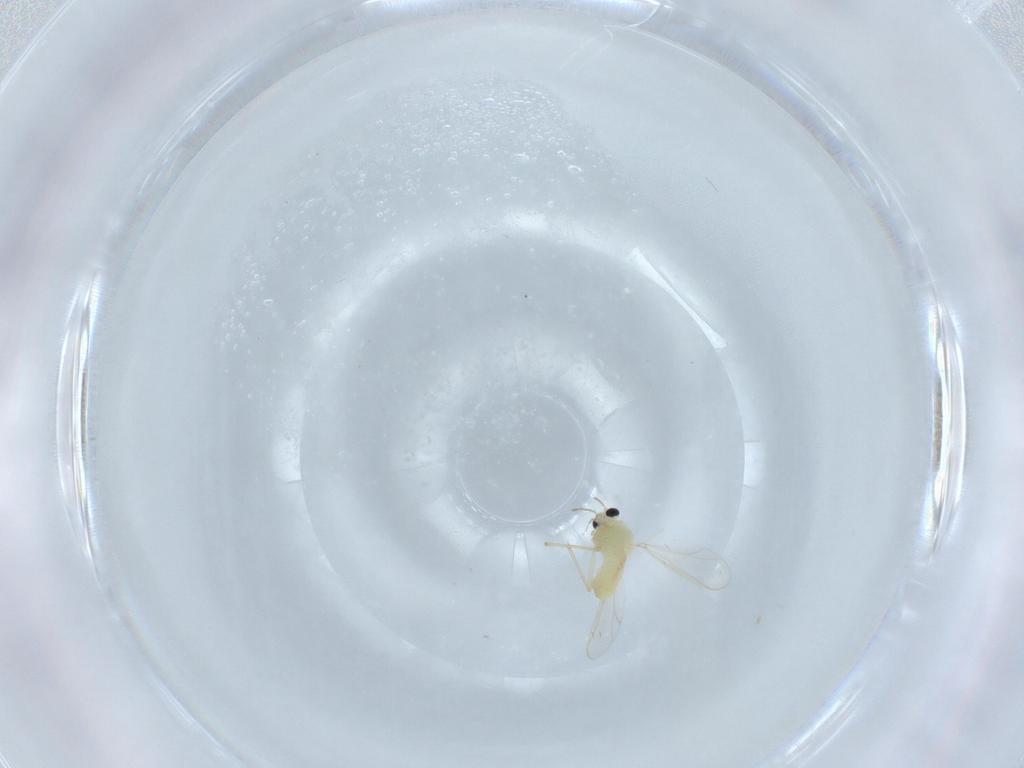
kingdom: Animalia
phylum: Arthropoda
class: Insecta
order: Diptera
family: Chironomidae
